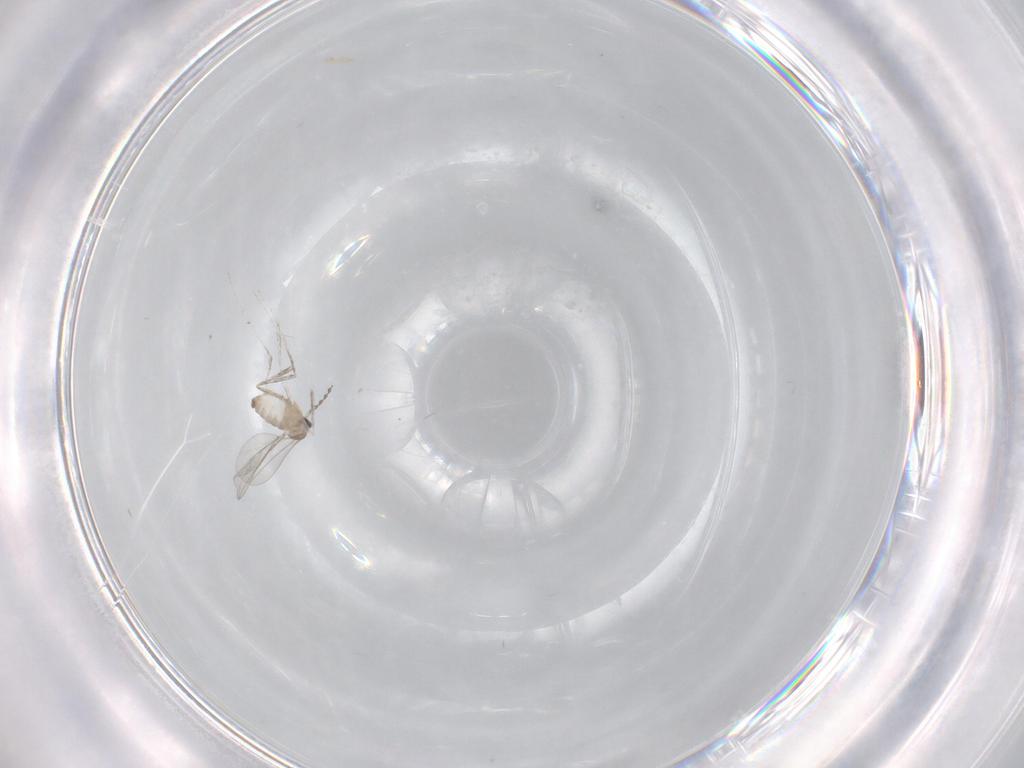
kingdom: Animalia
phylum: Arthropoda
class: Insecta
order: Diptera
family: Cecidomyiidae
